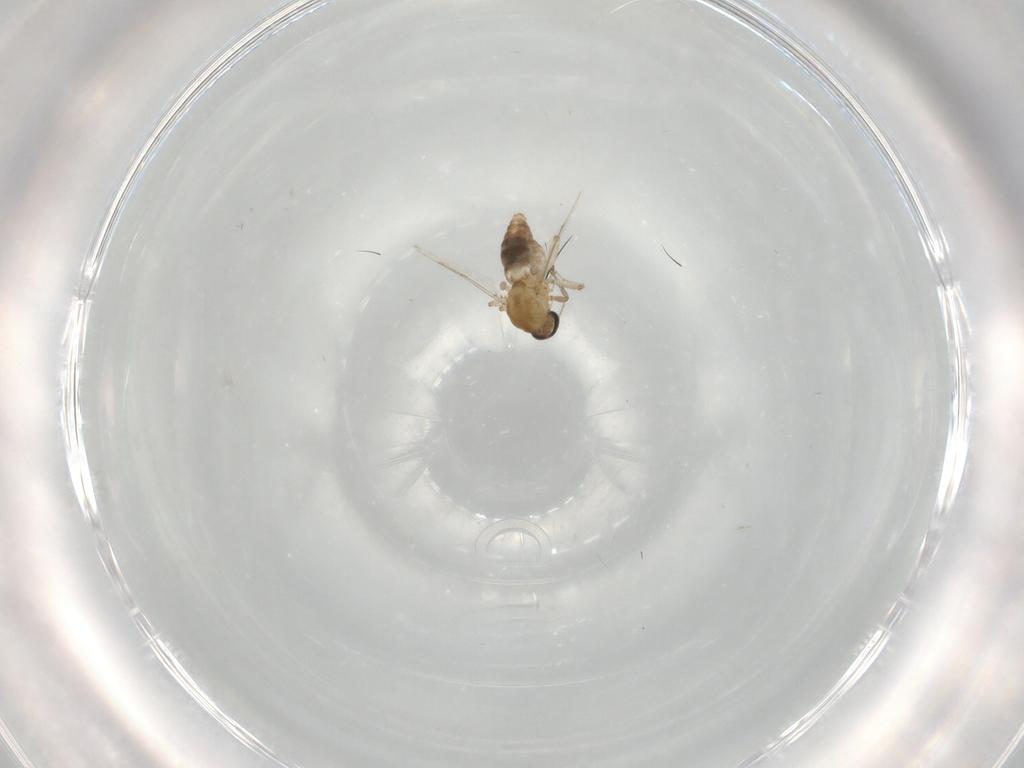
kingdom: Animalia
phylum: Arthropoda
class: Insecta
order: Diptera
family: Ceratopogonidae
